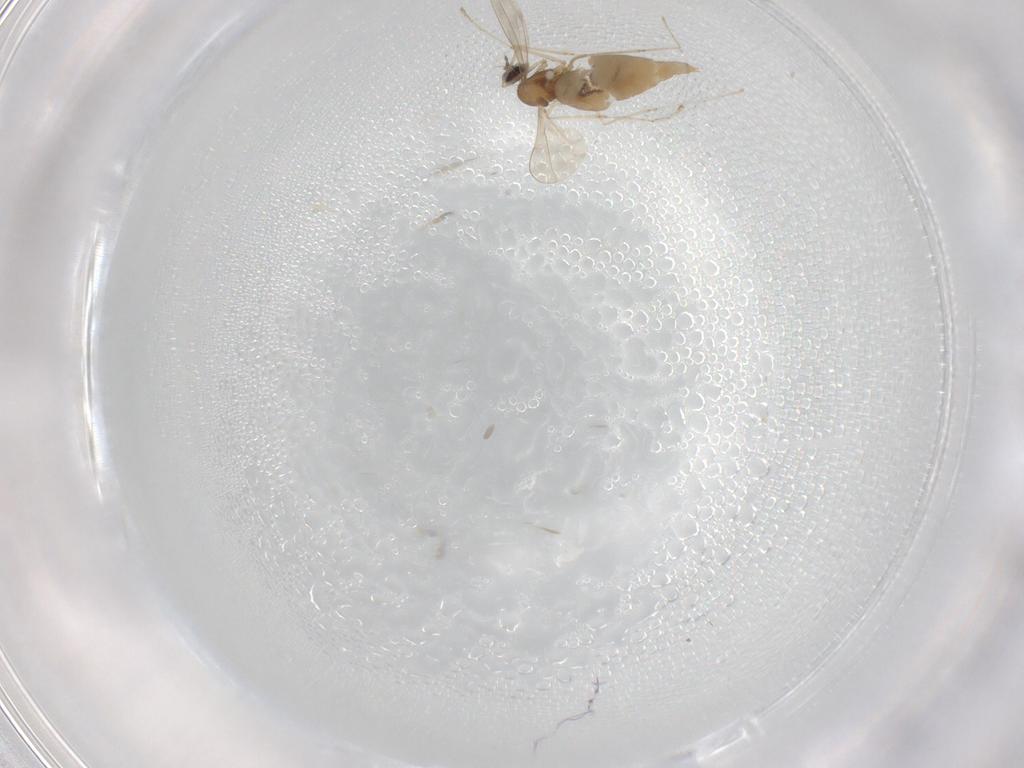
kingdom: Animalia
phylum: Arthropoda
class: Insecta
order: Diptera
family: Cecidomyiidae
